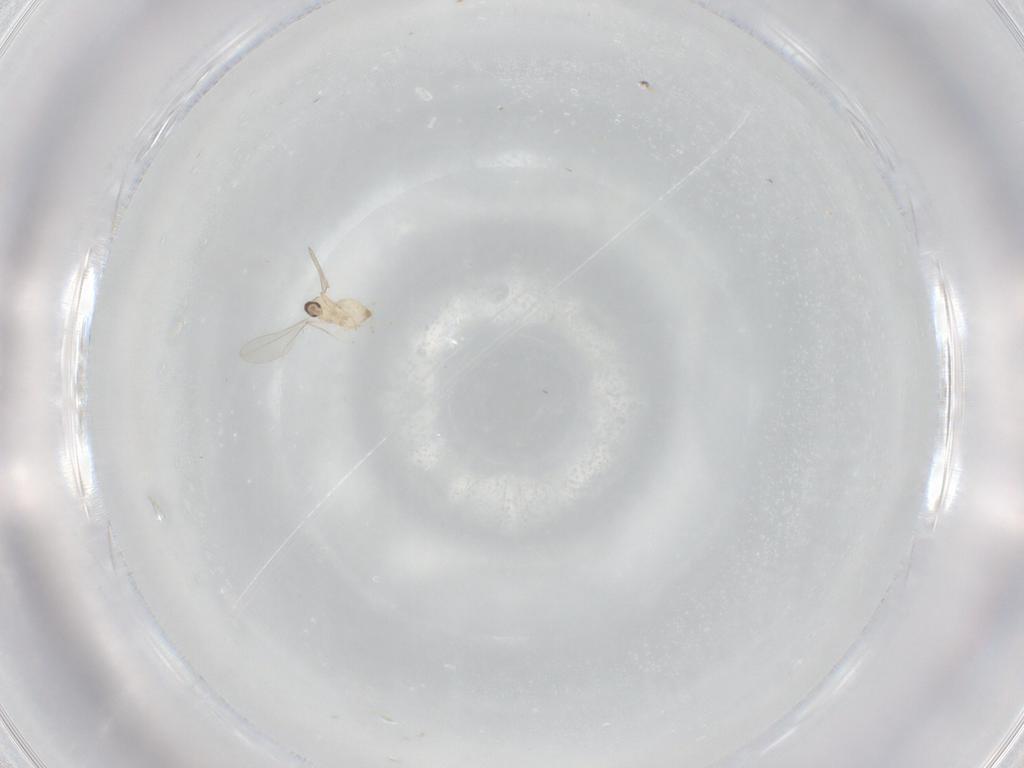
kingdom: Animalia
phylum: Arthropoda
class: Insecta
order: Diptera
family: Cecidomyiidae
